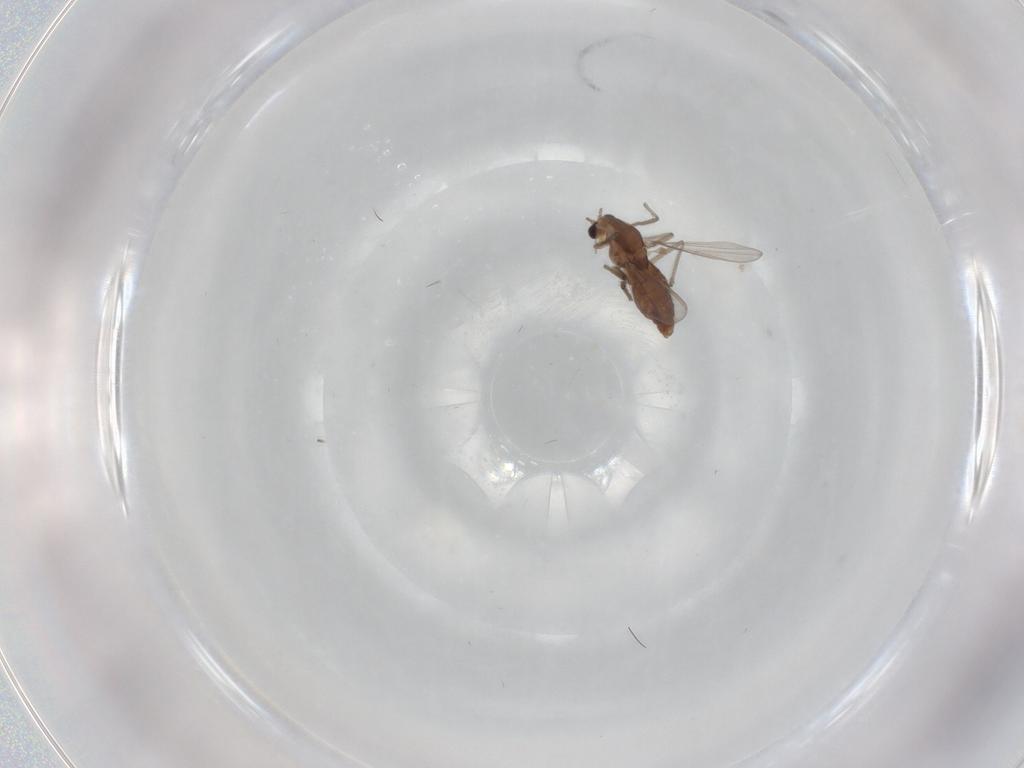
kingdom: Animalia
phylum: Arthropoda
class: Insecta
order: Diptera
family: Chironomidae
